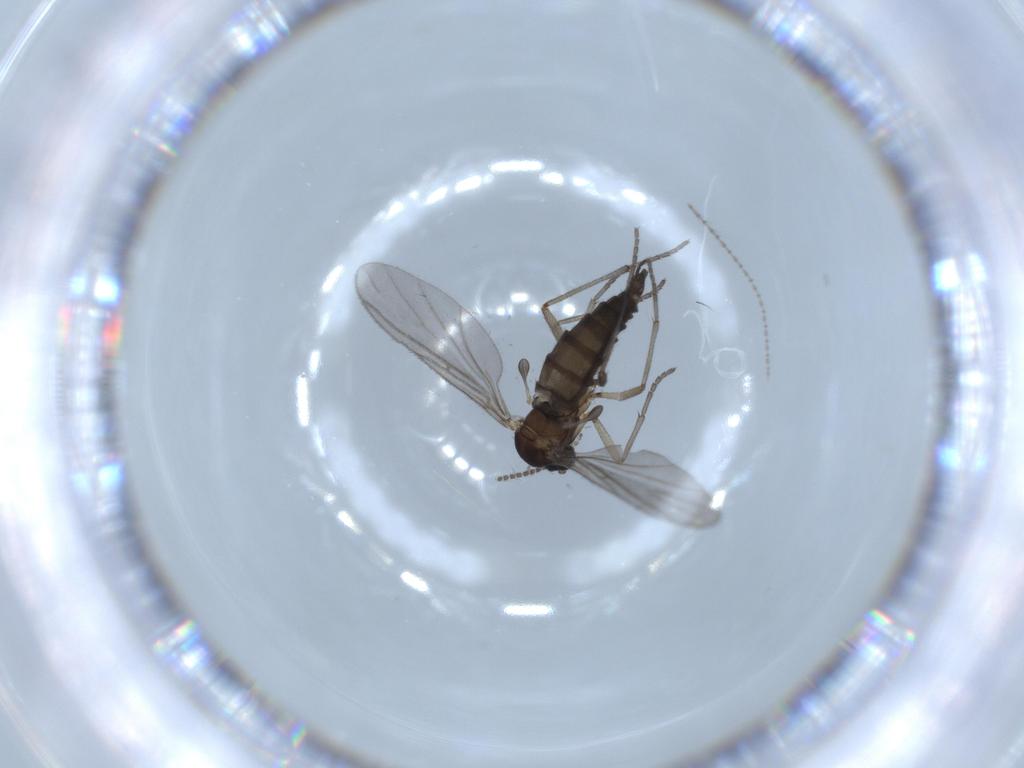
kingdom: Animalia
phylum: Arthropoda
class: Insecta
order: Diptera
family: Sciaridae
